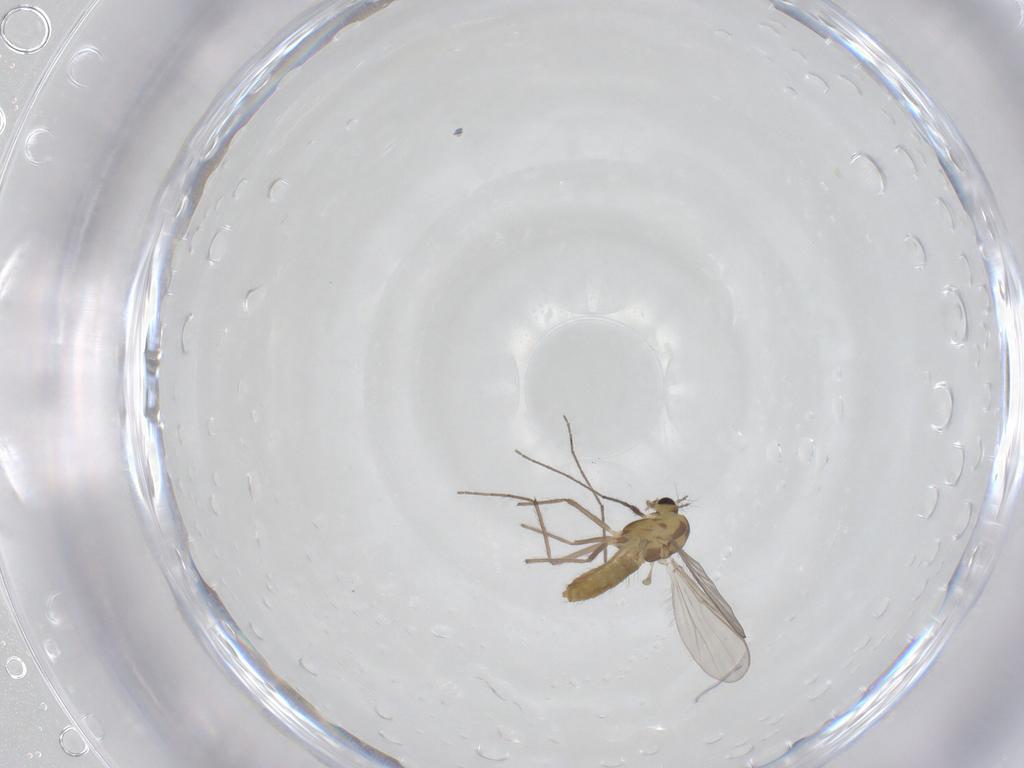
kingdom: Animalia
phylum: Arthropoda
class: Insecta
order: Diptera
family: Chironomidae
